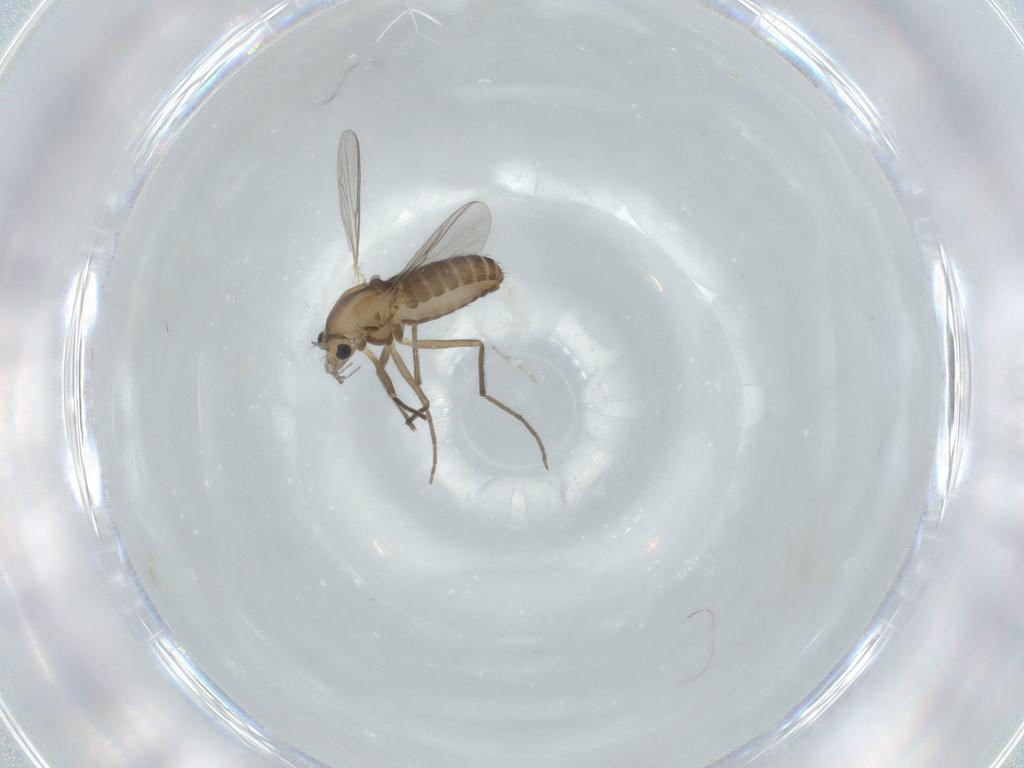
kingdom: Animalia
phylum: Arthropoda
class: Insecta
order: Diptera
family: Chironomidae
